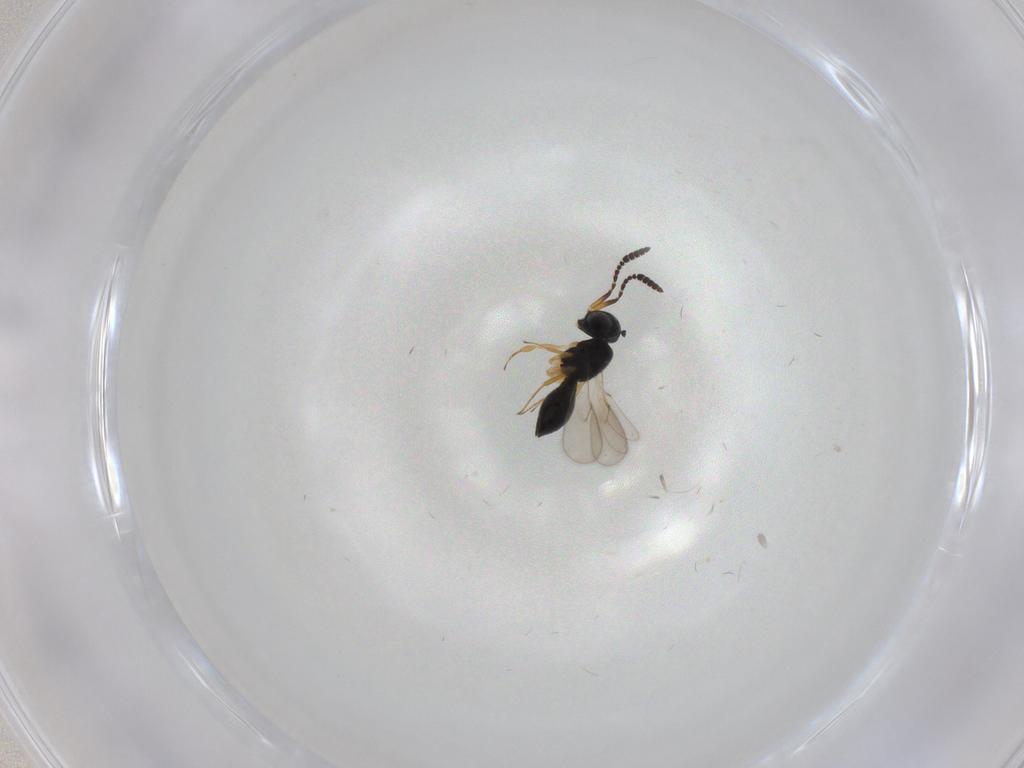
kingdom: Animalia
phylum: Arthropoda
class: Insecta
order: Hymenoptera
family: Scelionidae
